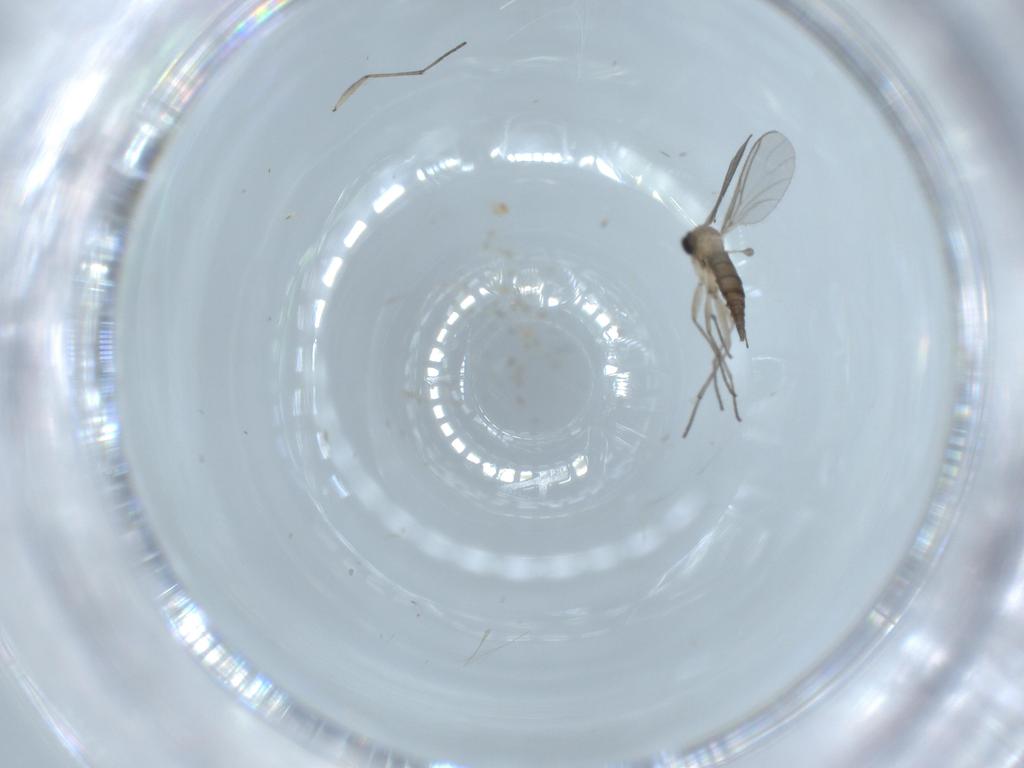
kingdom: Animalia
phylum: Arthropoda
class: Insecta
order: Diptera
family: Sciaridae
